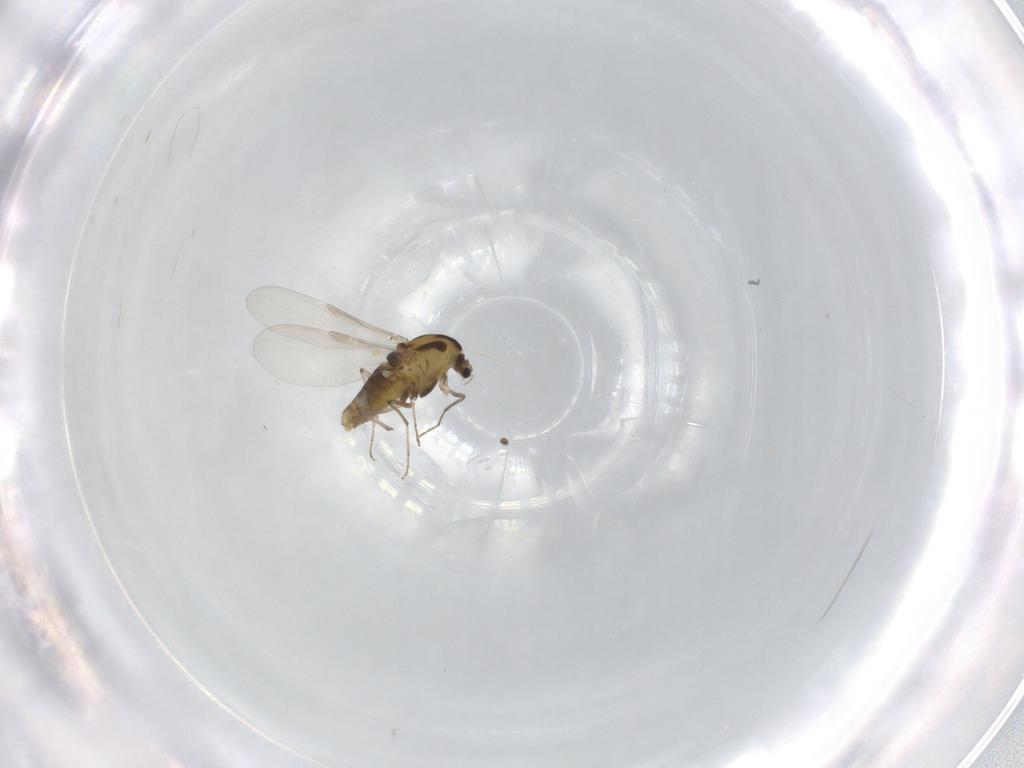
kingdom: Animalia
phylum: Arthropoda
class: Insecta
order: Diptera
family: Chironomidae
